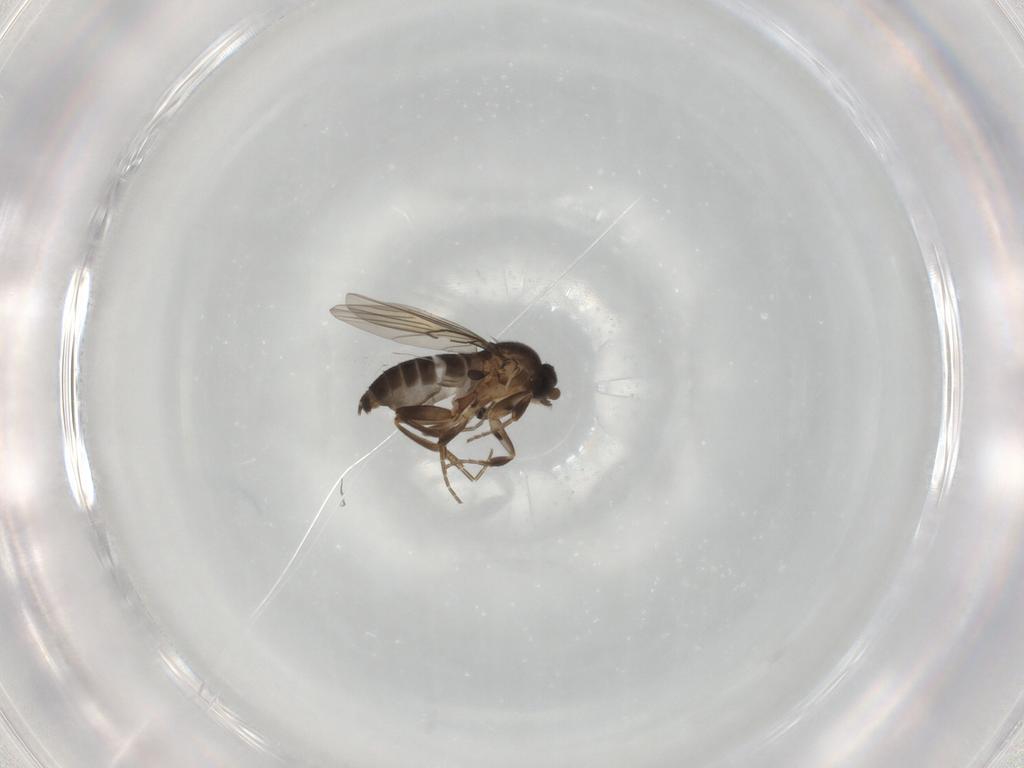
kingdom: Animalia
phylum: Arthropoda
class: Insecta
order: Diptera
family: Phoridae
